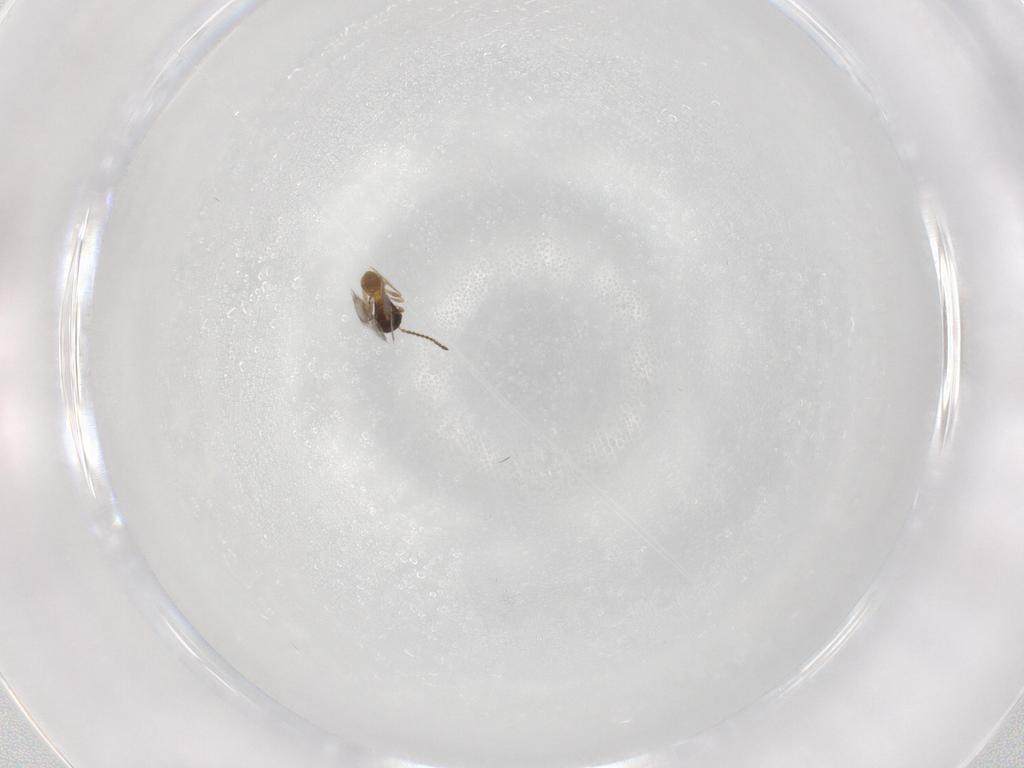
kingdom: Animalia
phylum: Arthropoda
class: Insecta
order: Hymenoptera
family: Scelionidae
